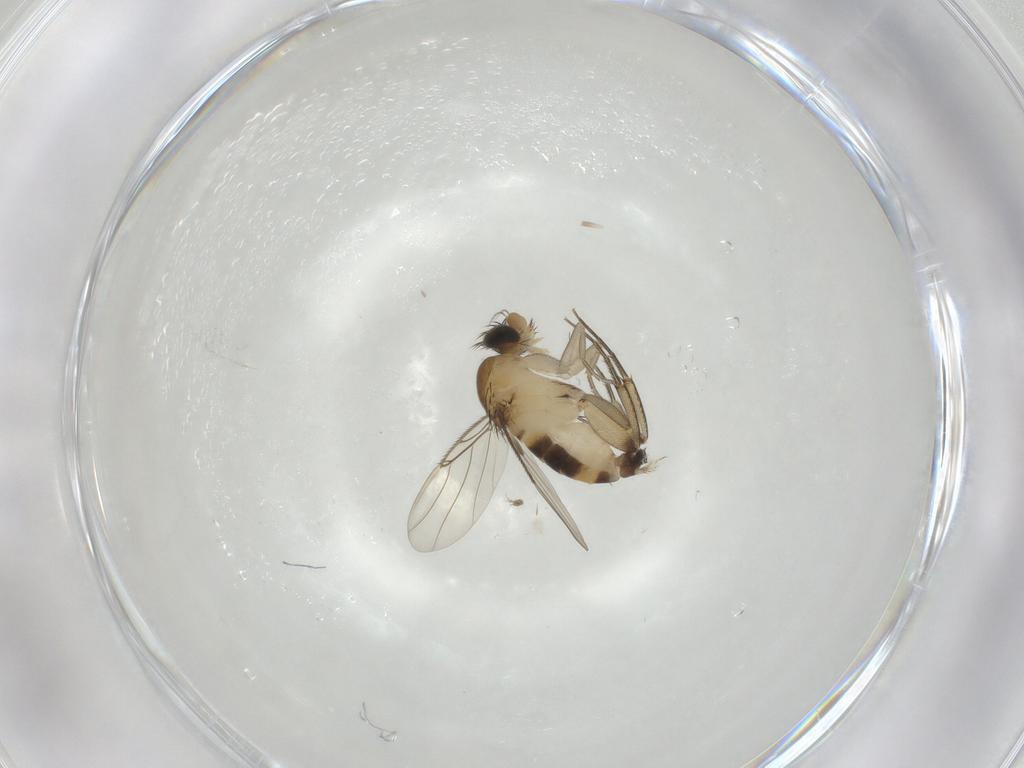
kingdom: Animalia
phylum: Arthropoda
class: Insecta
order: Diptera
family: Phoridae
